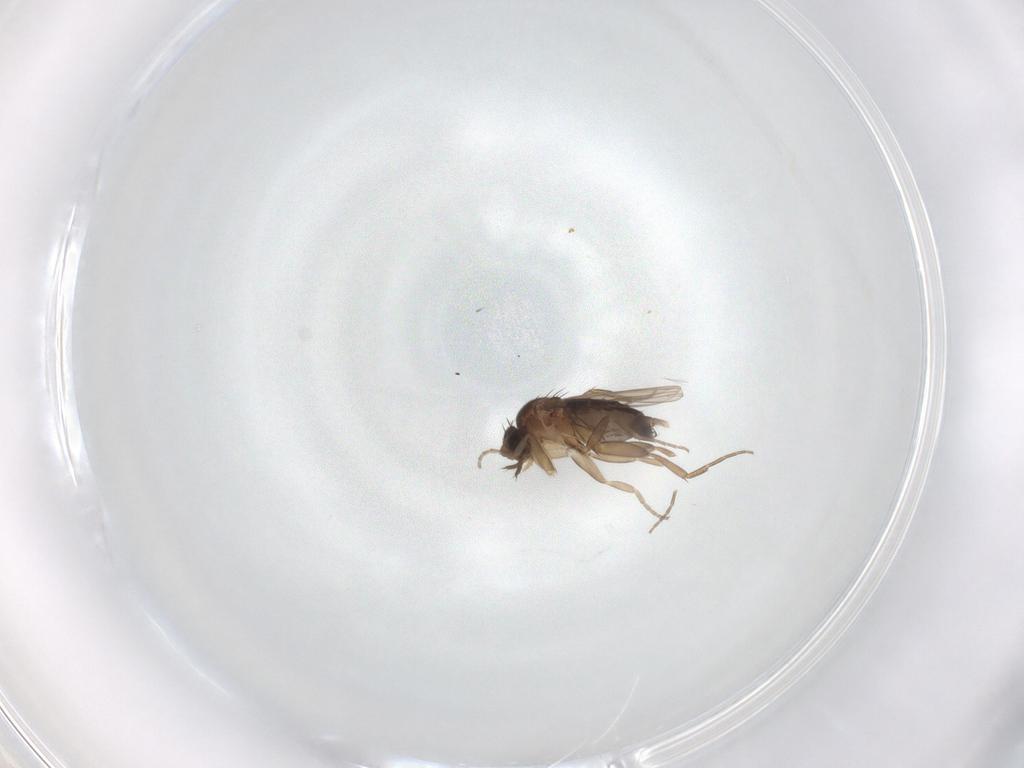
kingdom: Animalia
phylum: Arthropoda
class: Insecta
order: Diptera
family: Phoridae
